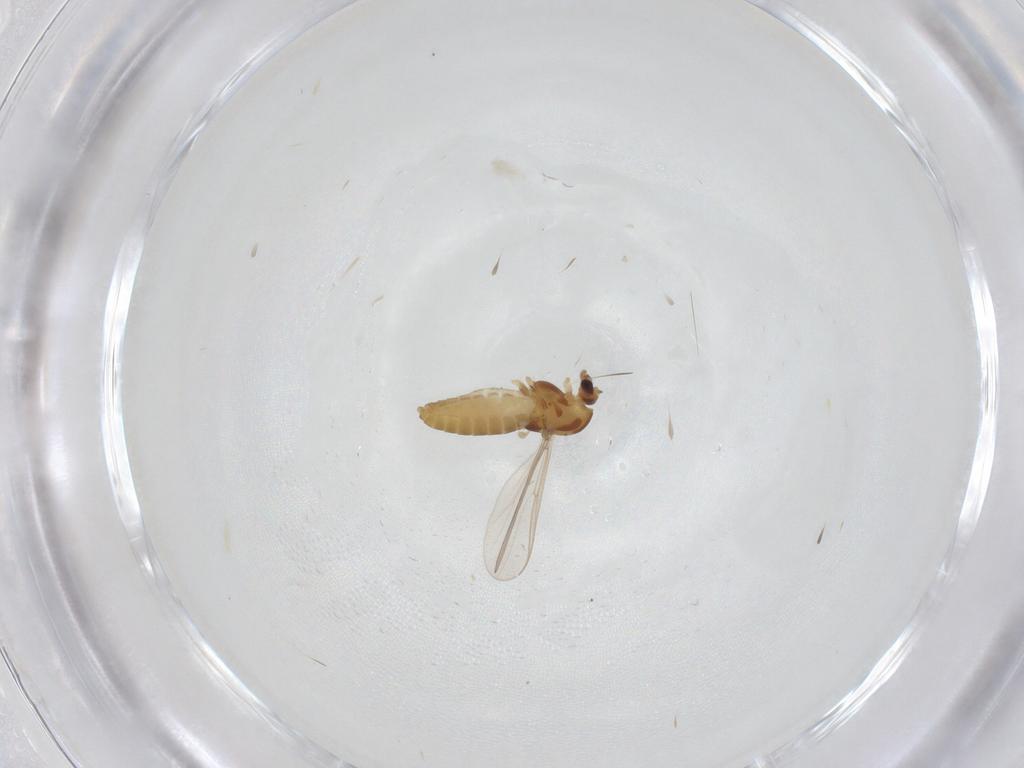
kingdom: Animalia
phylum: Arthropoda
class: Insecta
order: Diptera
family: Chironomidae
